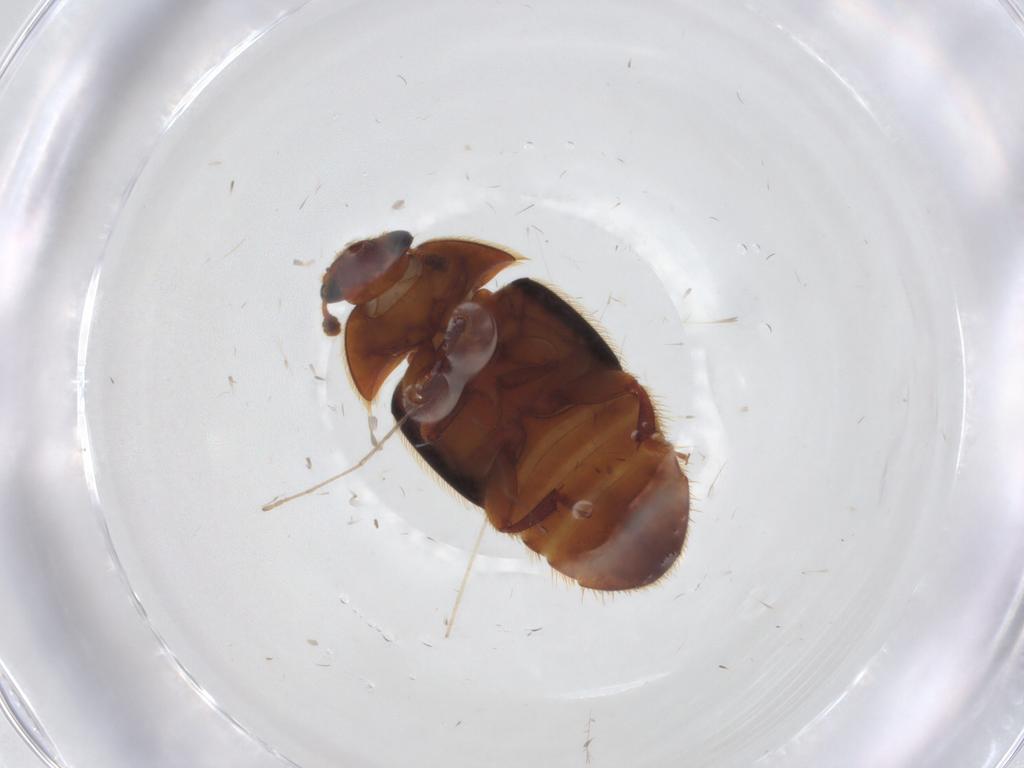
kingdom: Animalia
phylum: Arthropoda
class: Insecta
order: Coleoptera
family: Nitidulidae
